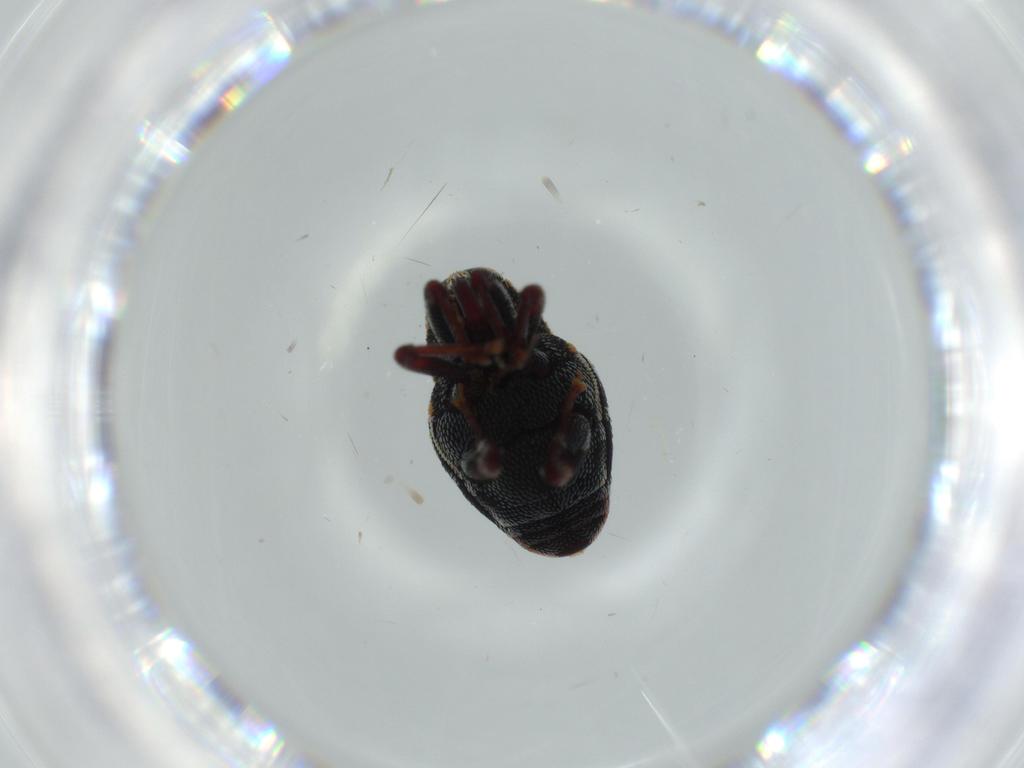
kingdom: Animalia
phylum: Arthropoda
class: Insecta
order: Coleoptera
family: Curculionidae
